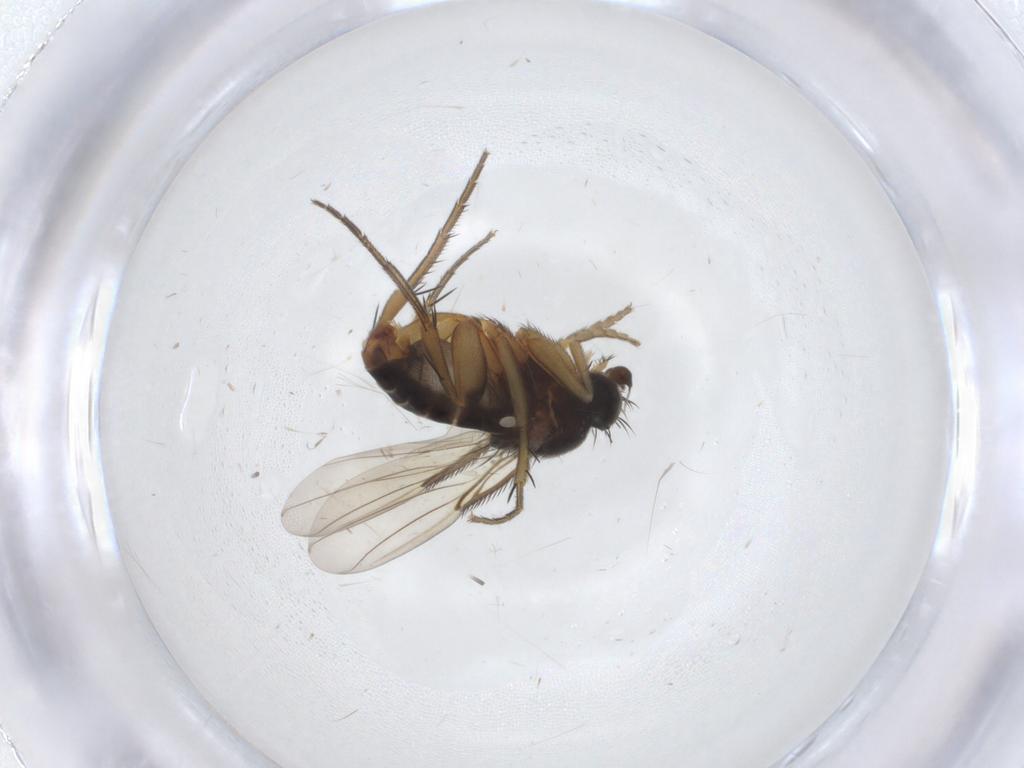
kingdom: Animalia
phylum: Arthropoda
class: Insecta
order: Diptera
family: Phoridae
